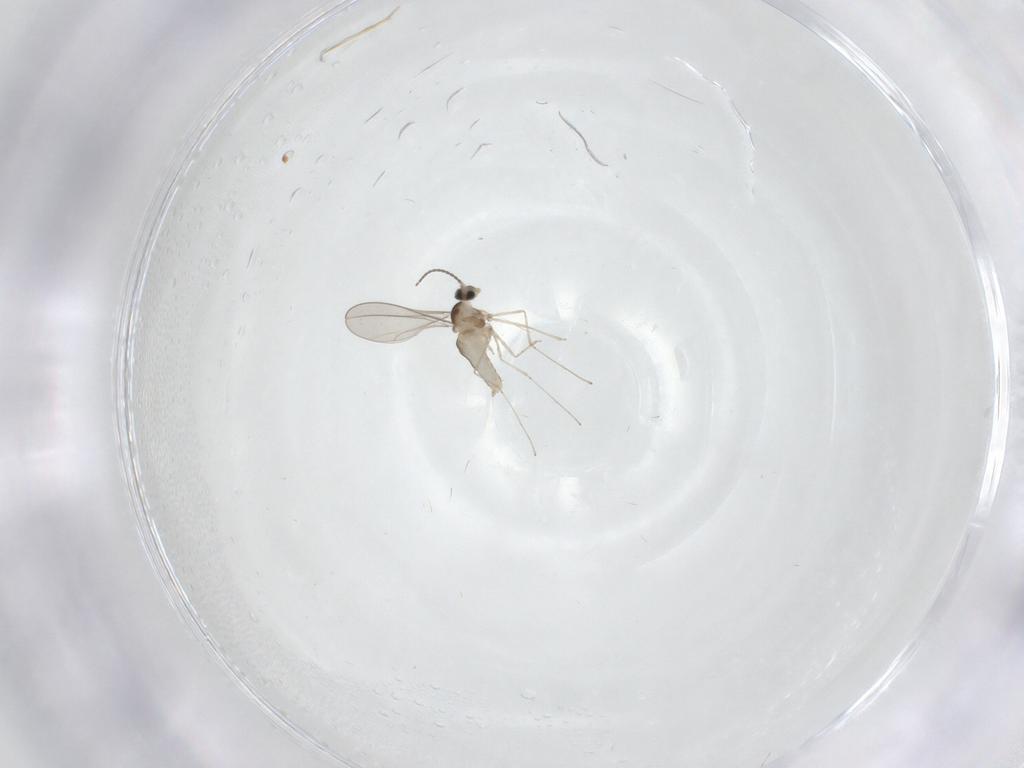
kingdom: Animalia
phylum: Arthropoda
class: Insecta
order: Diptera
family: Cecidomyiidae
